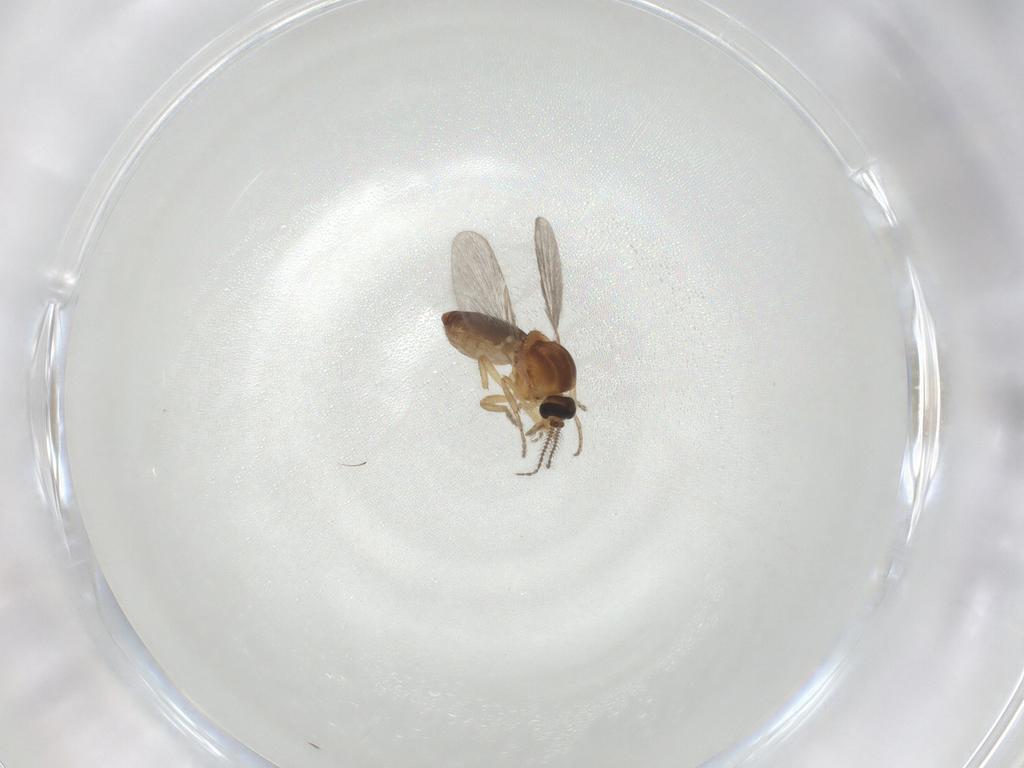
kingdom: Animalia
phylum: Arthropoda
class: Insecta
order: Diptera
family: Ceratopogonidae
